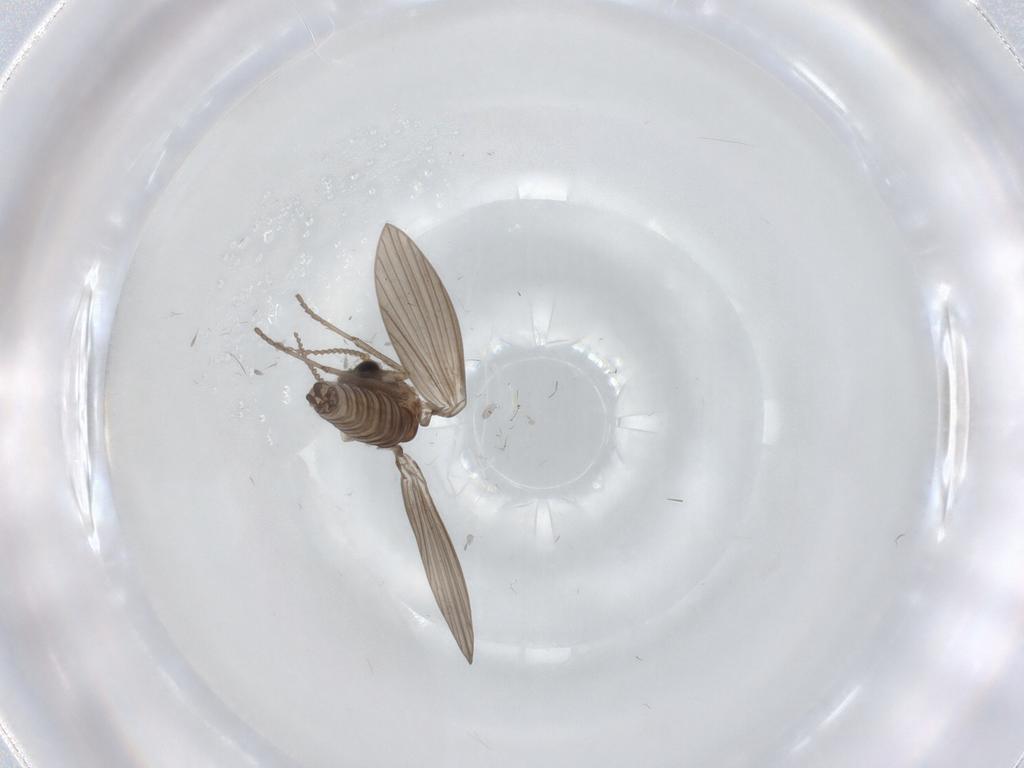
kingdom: Animalia
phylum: Arthropoda
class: Insecta
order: Diptera
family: Psychodidae
